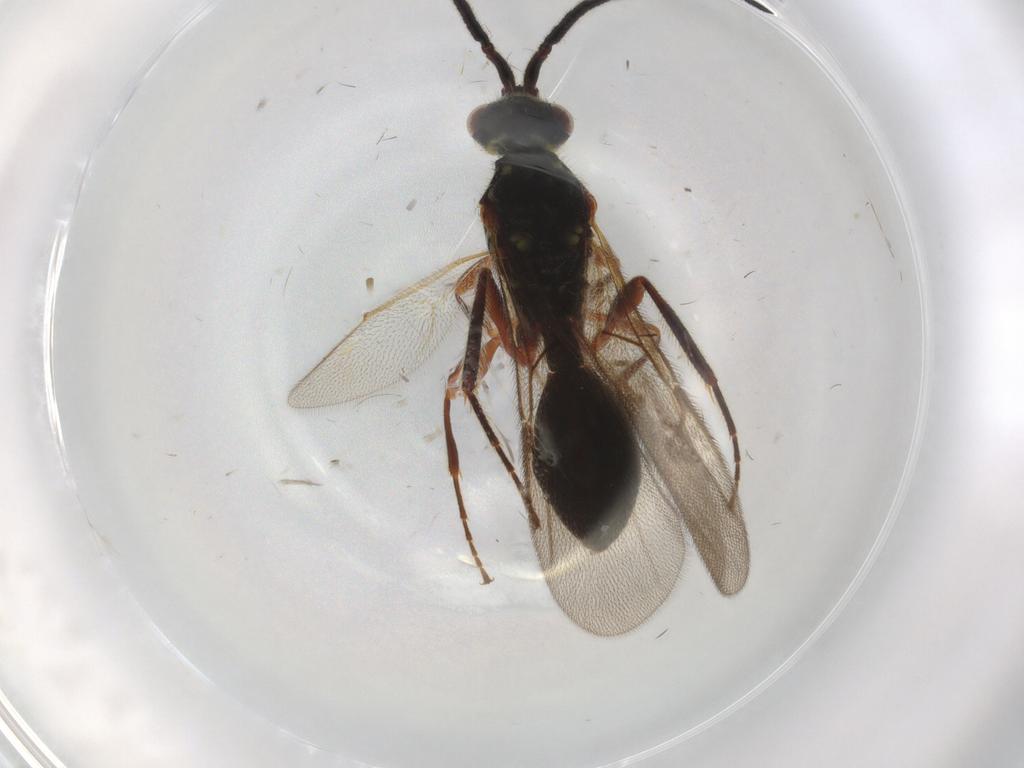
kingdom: Animalia
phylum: Arthropoda
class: Insecta
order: Hymenoptera
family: Diapriidae
